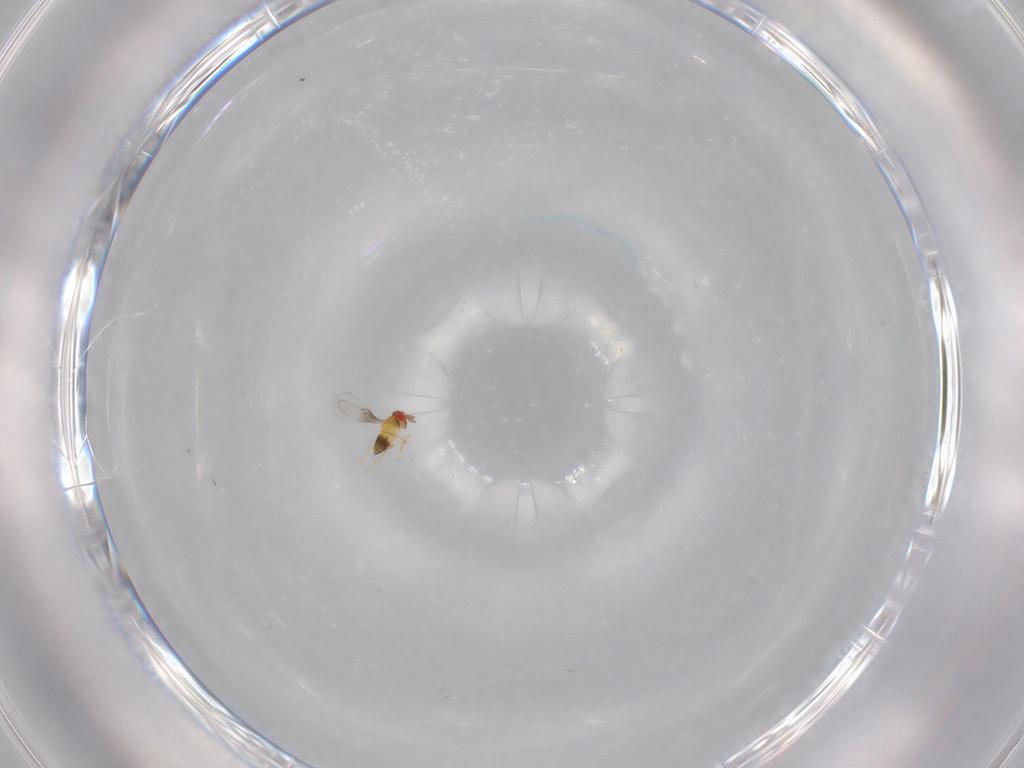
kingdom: Animalia
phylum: Arthropoda
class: Insecta
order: Hymenoptera
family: Trichogrammatidae
